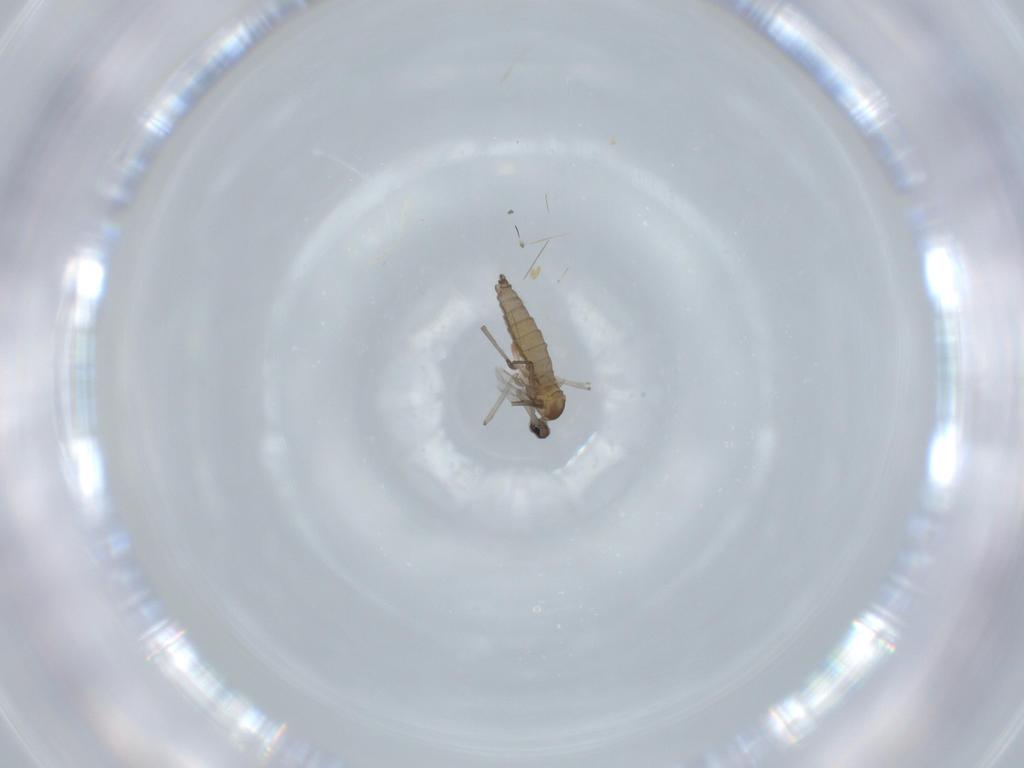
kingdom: Animalia
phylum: Arthropoda
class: Insecta
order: Diptera
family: Cecidomyiidae
